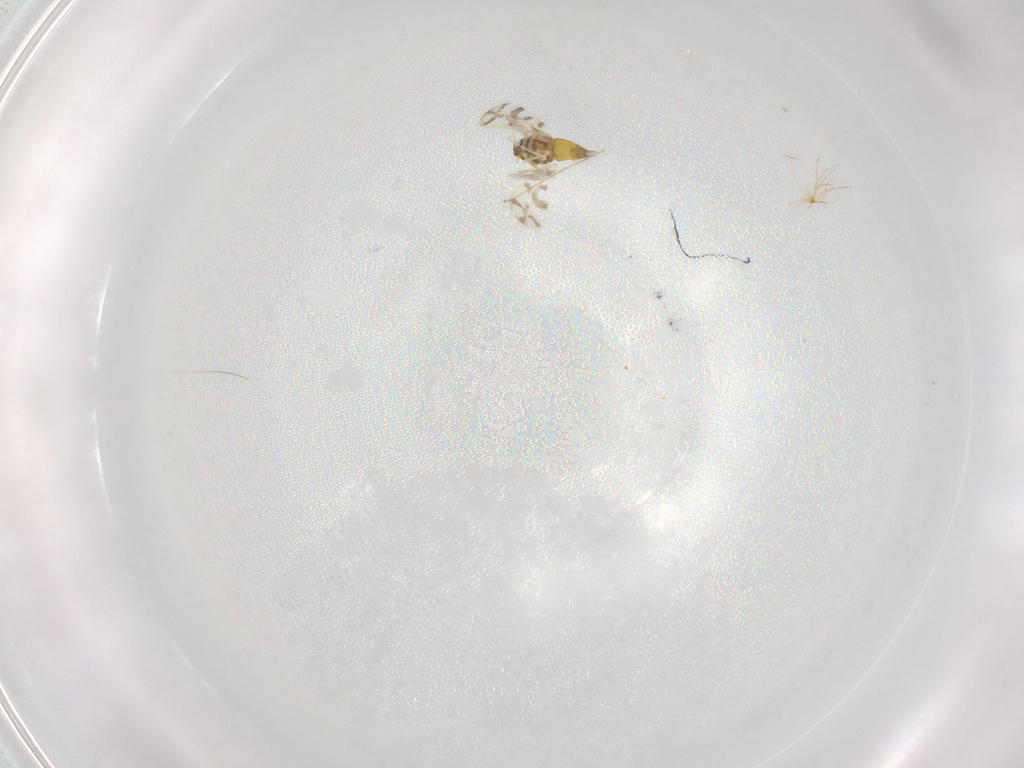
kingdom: Animalia
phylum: Arthropoda
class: Insecta
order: Hemiptera
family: Aleyrodidae
